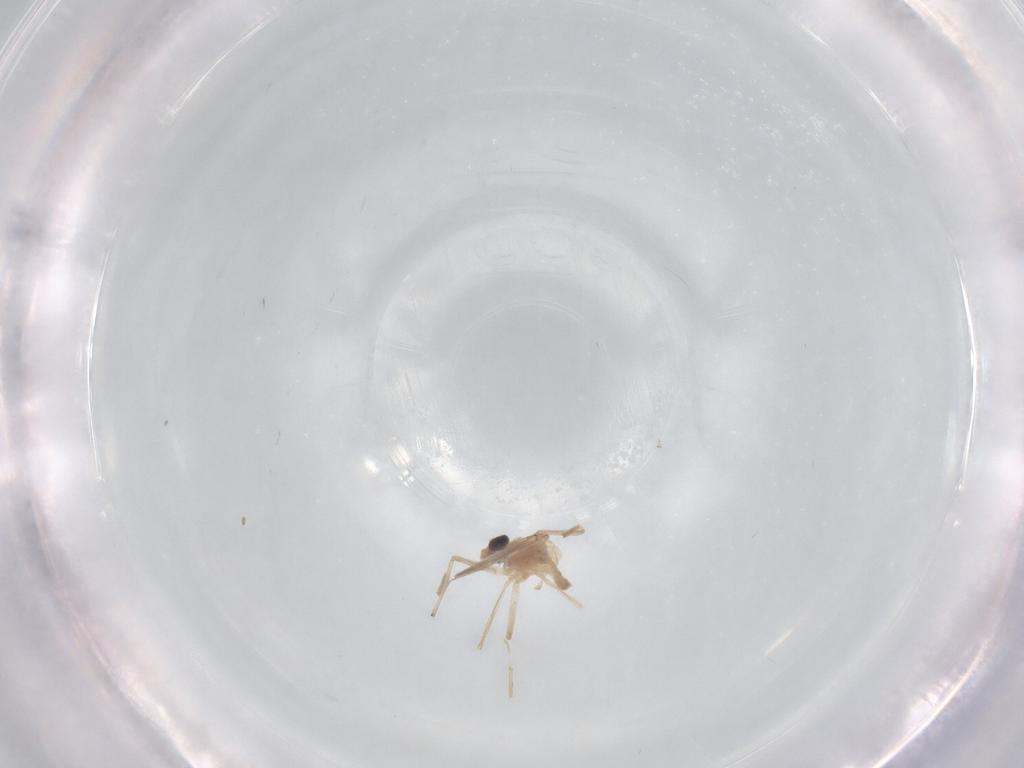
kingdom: Animalia
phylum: Arthropoda
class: Insecta
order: Diptera
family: Chironomidae
